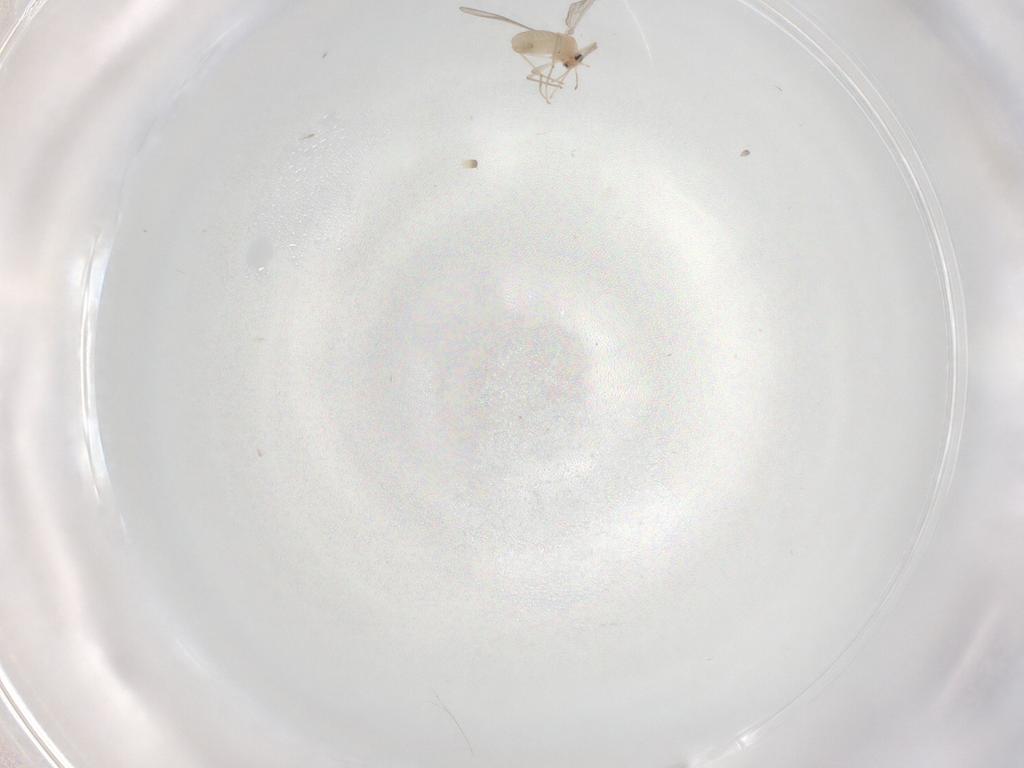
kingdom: Animalia
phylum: Arthropoda
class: Insecta
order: Diptera
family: Chironomidae
